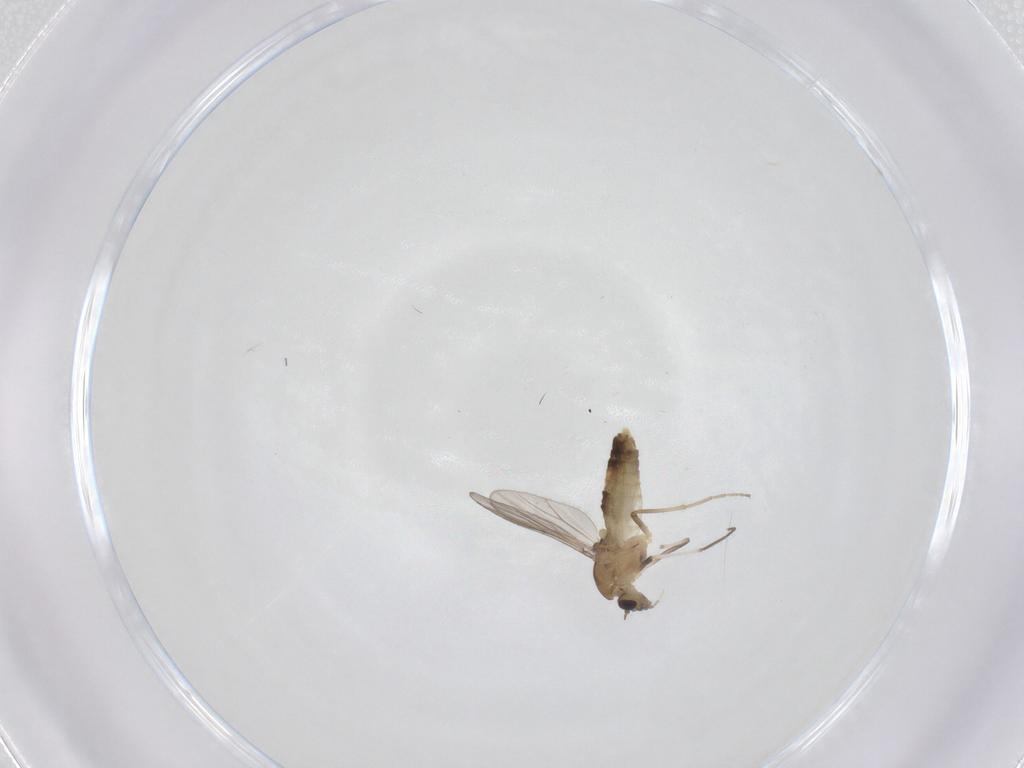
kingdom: Animalia
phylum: Arthropoda
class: Insecta
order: Diptera
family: Chironomidae
